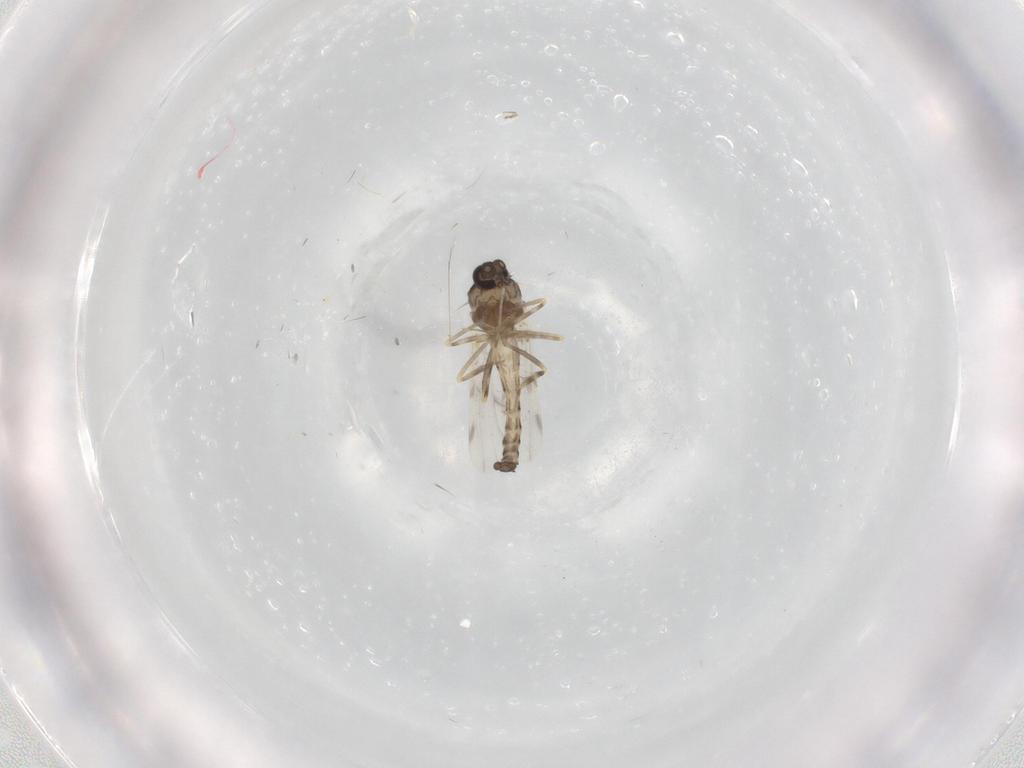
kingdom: Animalia
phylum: Arthropoda
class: Insecta
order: Diptera
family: Ceratopogonidae
